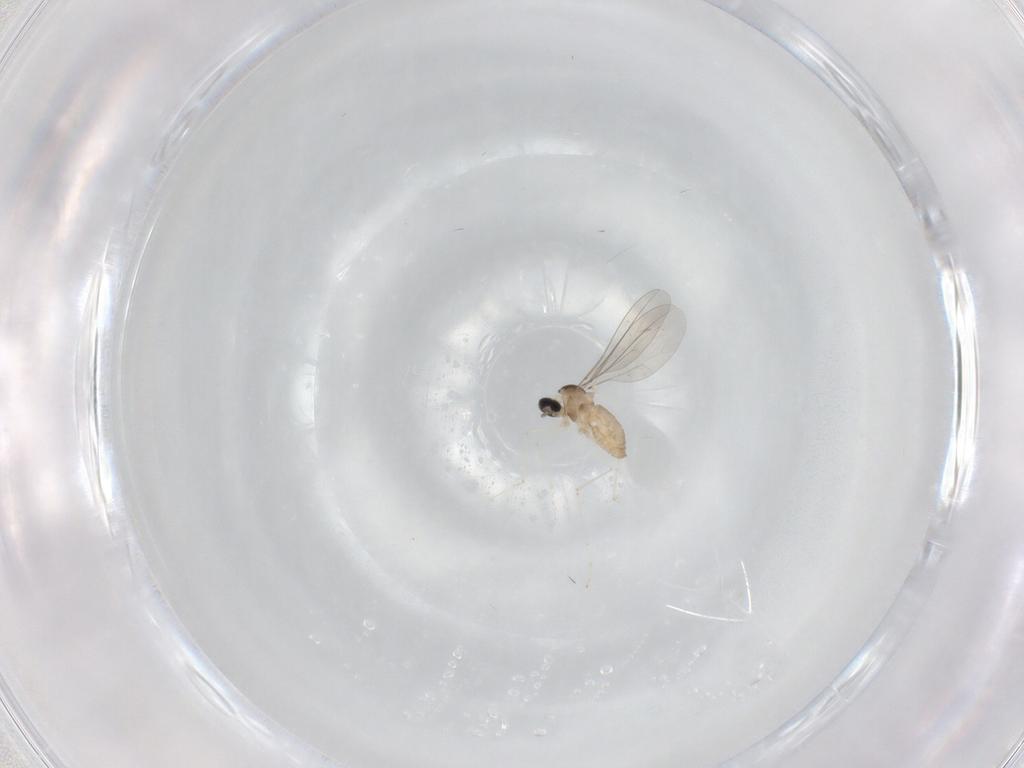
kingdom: Animalia
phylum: Arthropoda
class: Insecta
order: Diptera
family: Cecidomyiidae
